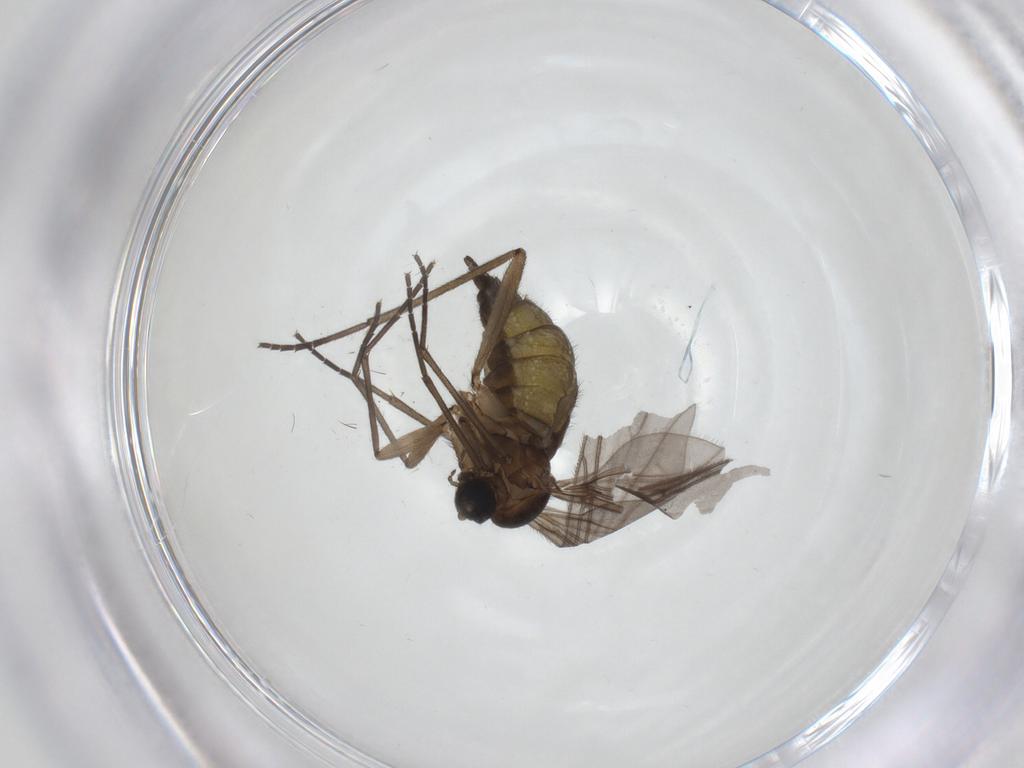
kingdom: Animalia
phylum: Arthropoda
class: Insecta
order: Diptera
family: Sciaridae
